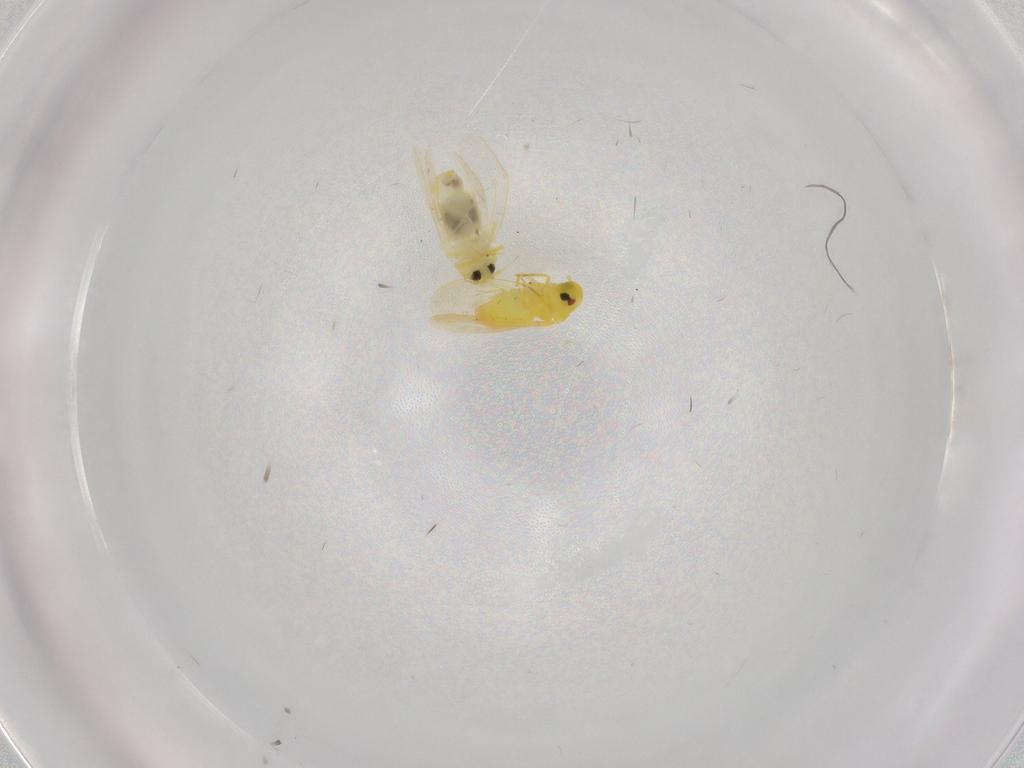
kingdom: Animalia
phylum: Arthropoda
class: Insecta
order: Hemiptera
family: Aleyrodidae
